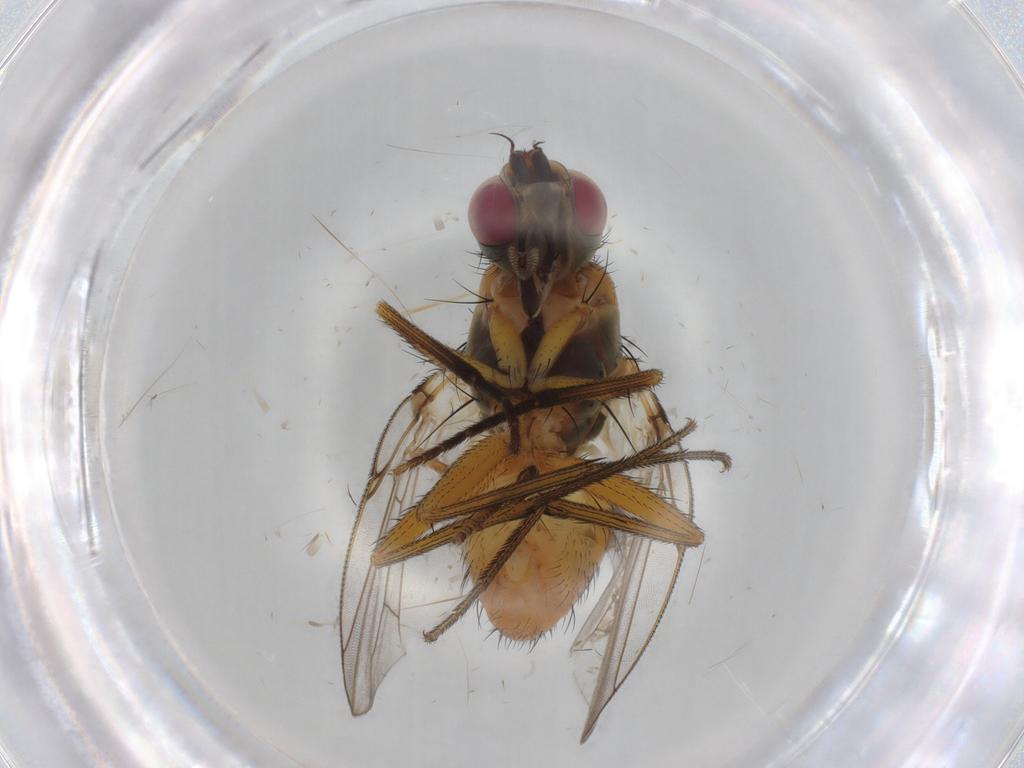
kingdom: Animalia
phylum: Arthropoda
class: Insecta
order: Diptera
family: Muscidae
